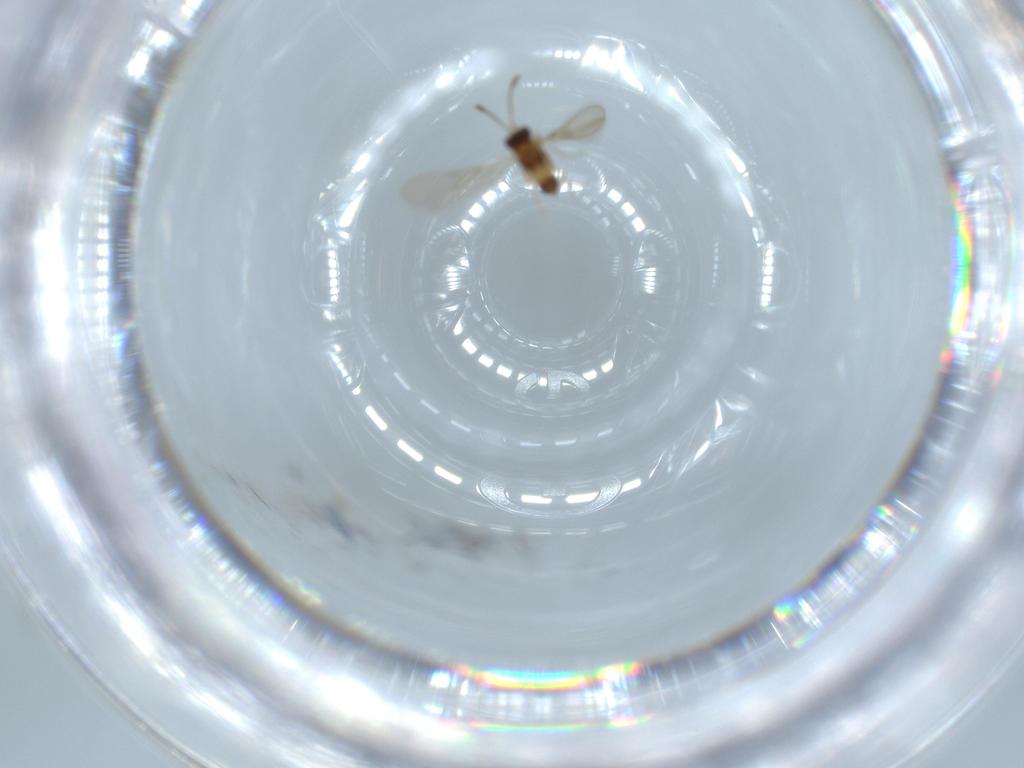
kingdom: Animalia
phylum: Arthropoda
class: Insecta
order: Hymenoptera
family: Mymaridae
